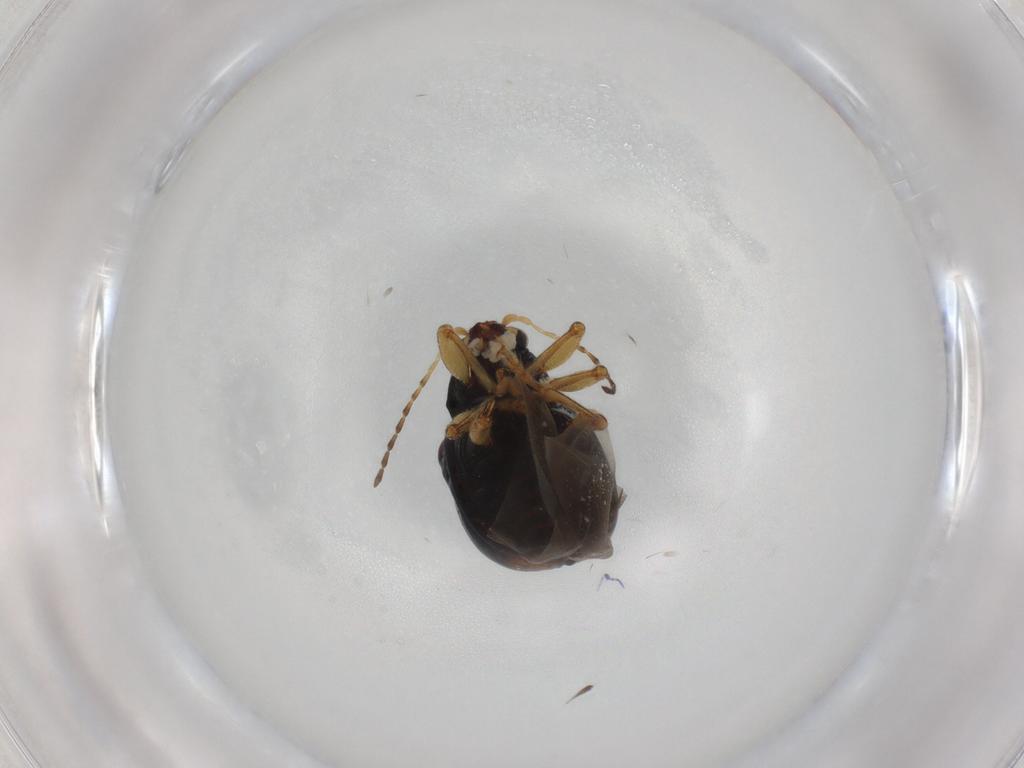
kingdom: Animalia
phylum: Arthropoda
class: Insecta
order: Coleoptera
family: Chrysomelidae
